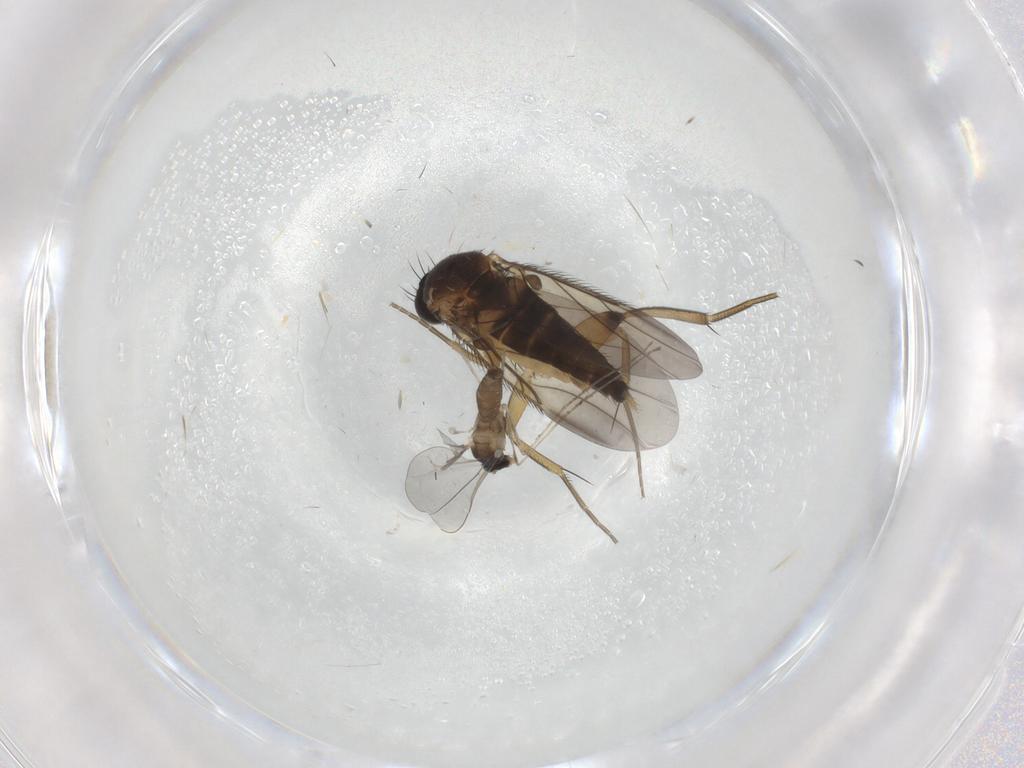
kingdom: Animalia
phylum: Arthropoda
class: Insecta
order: Diptera
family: Phoridae
